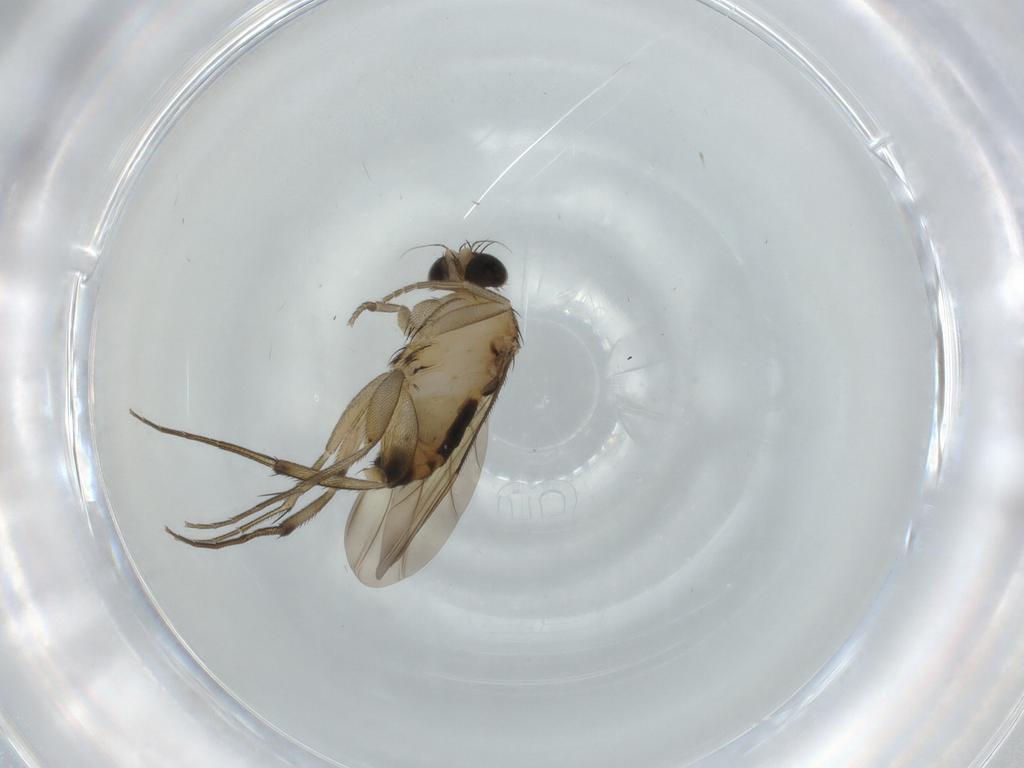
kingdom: Animalia
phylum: Arthropoda
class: Insecta
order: Diptera
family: Phoridae
